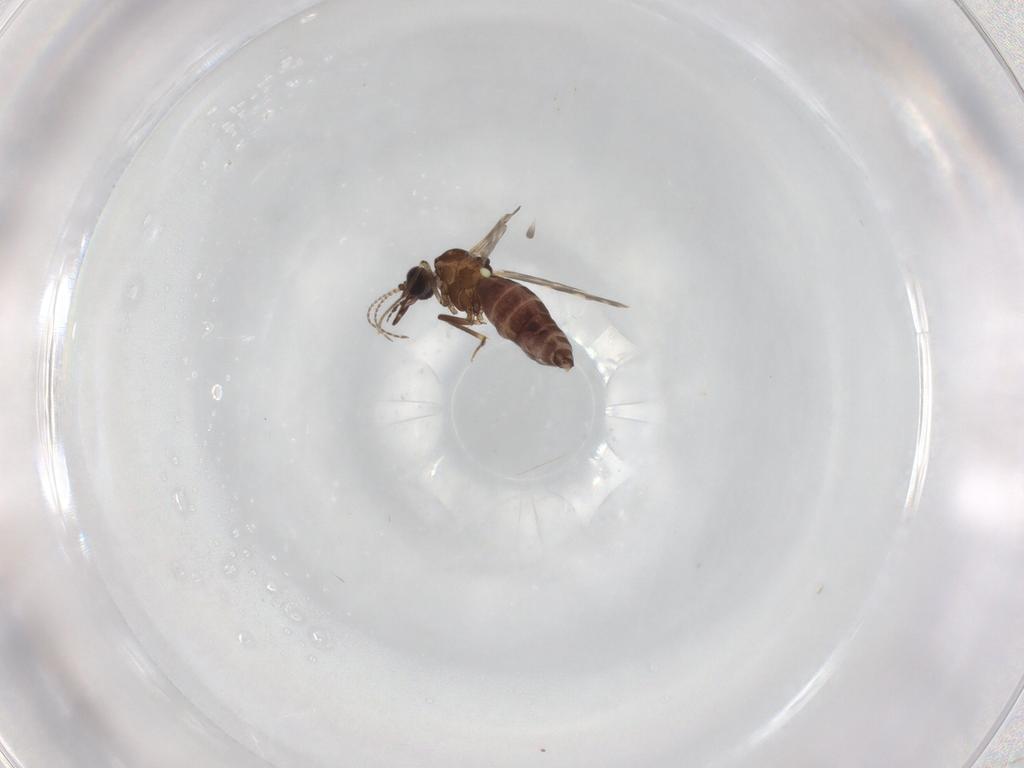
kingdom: Animalia
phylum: Arthropoda
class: Insecta
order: Diptera
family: Ceratopogonidae
